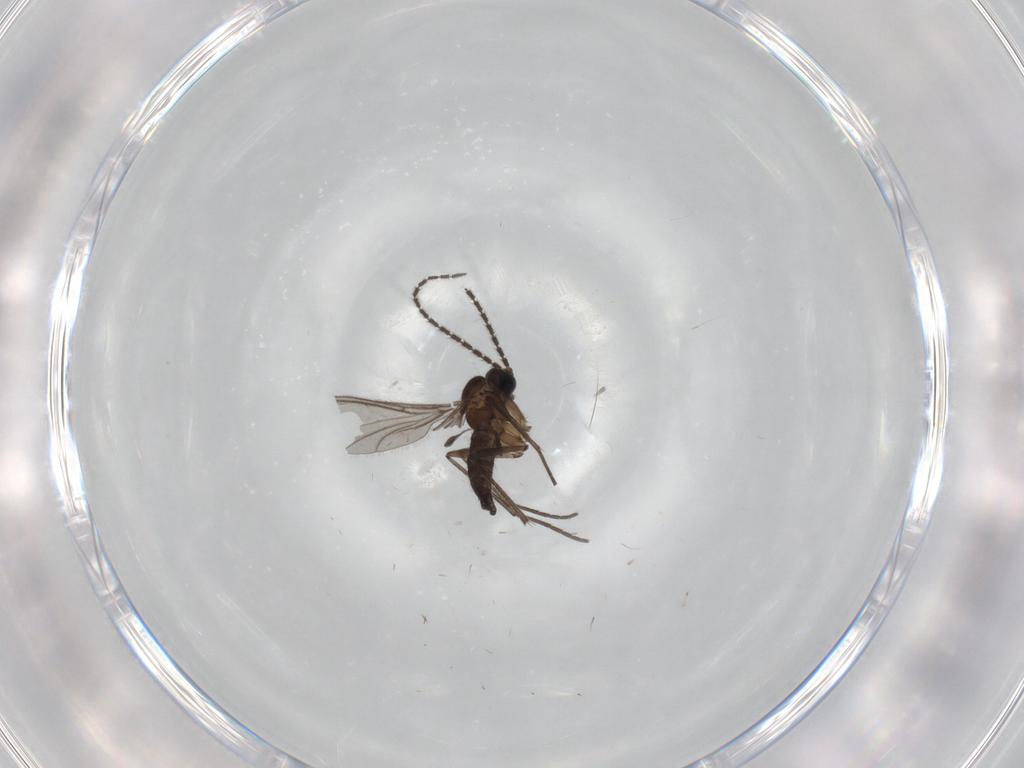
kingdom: Animalia
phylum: Arthropoda
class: Insecta
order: Diptera
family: Sciaridae
